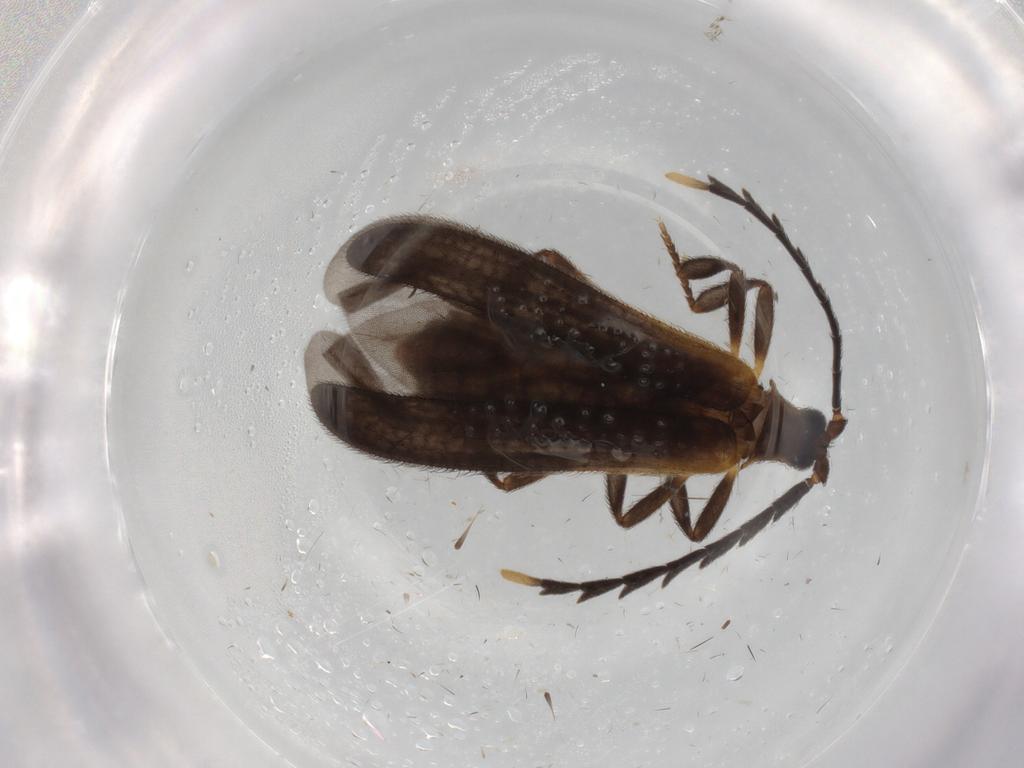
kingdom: Animalia
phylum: Arthropoda
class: Insecta
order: Coleoptera
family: Lycidae
